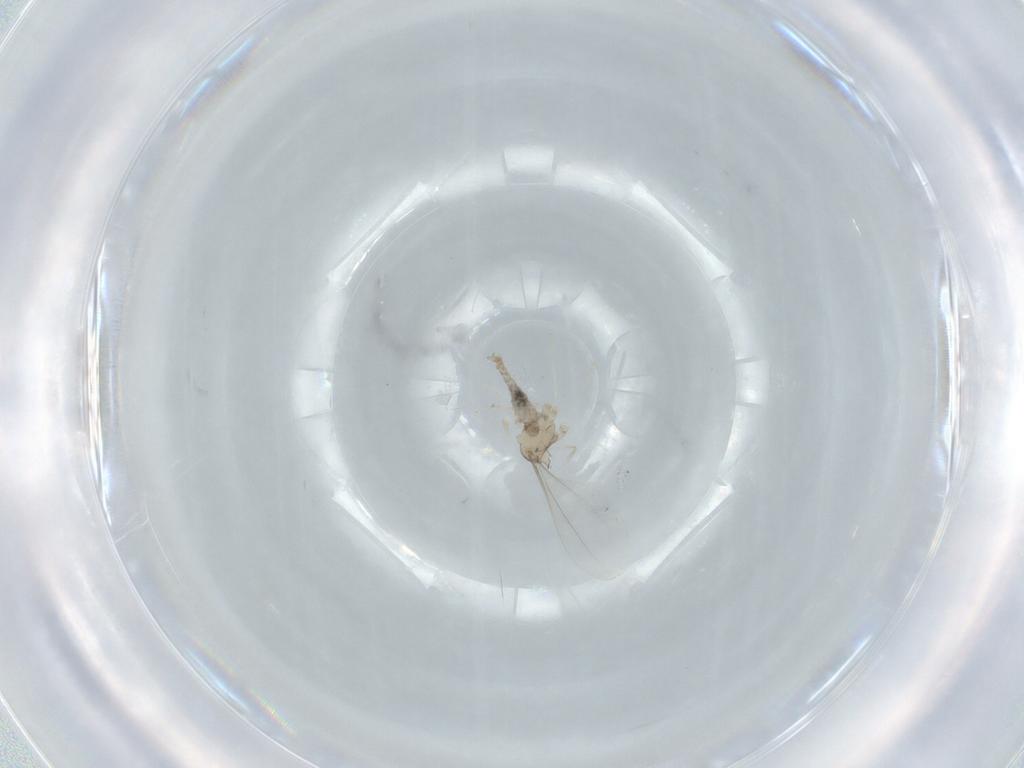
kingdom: Animalia
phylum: Arthropoda
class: Insecta
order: Diptera
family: Cecidomyiidae
